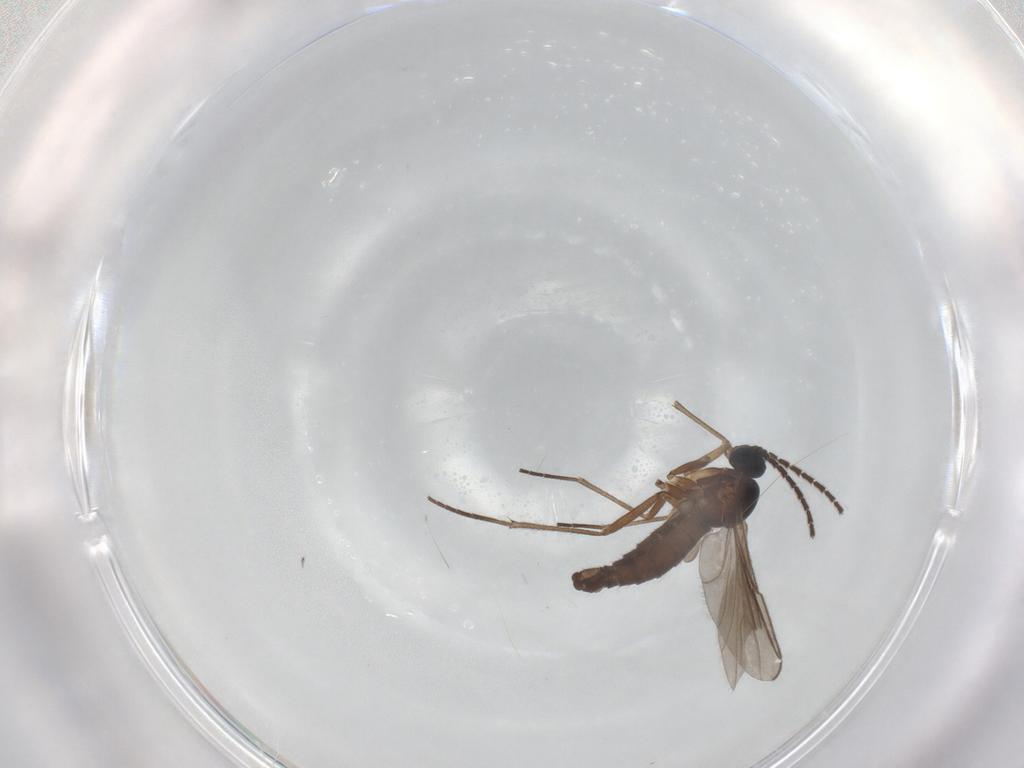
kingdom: Animalia
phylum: Arthropoda
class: Insecta
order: Diptera
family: Sciaridae
